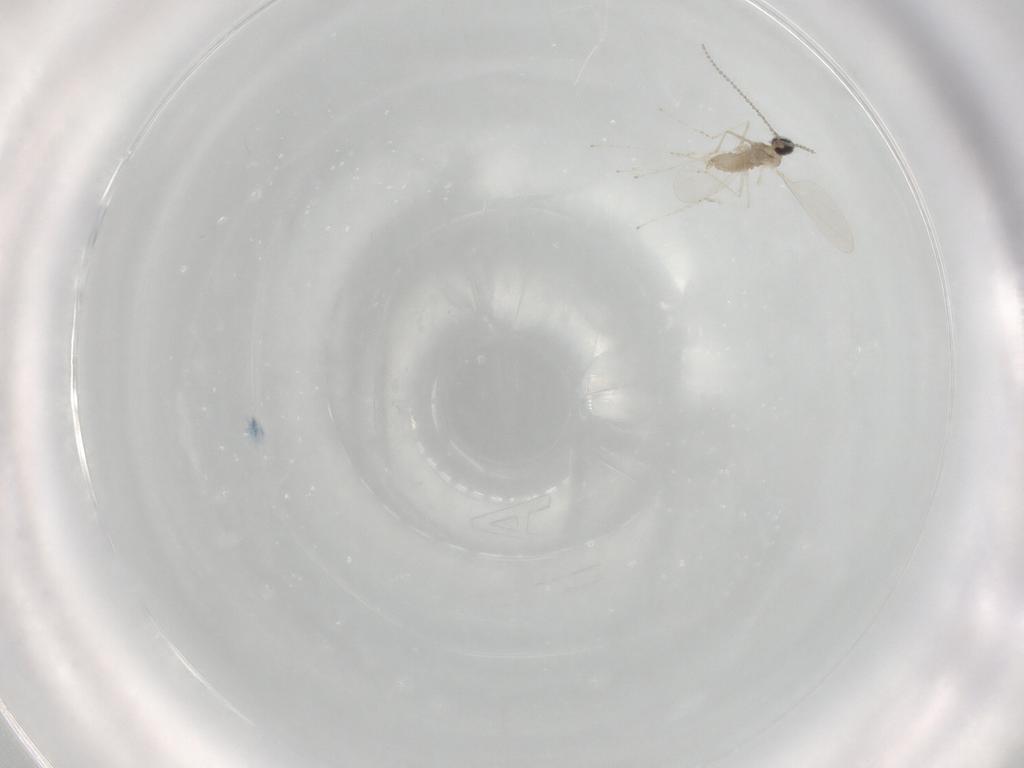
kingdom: Animalia
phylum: Arthropoda
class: Insecta
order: Diptera
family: Cecidomyiidae
